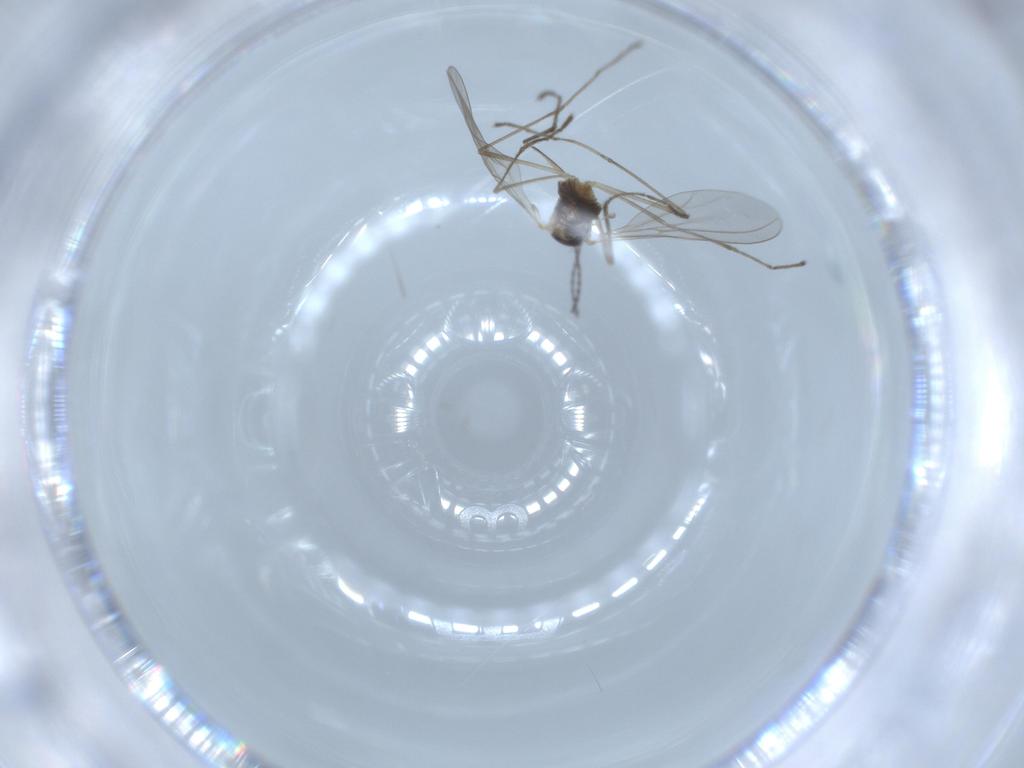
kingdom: Animalia
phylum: Arthropoda
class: Insecta
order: Diptera
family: Cecidomyiidae
